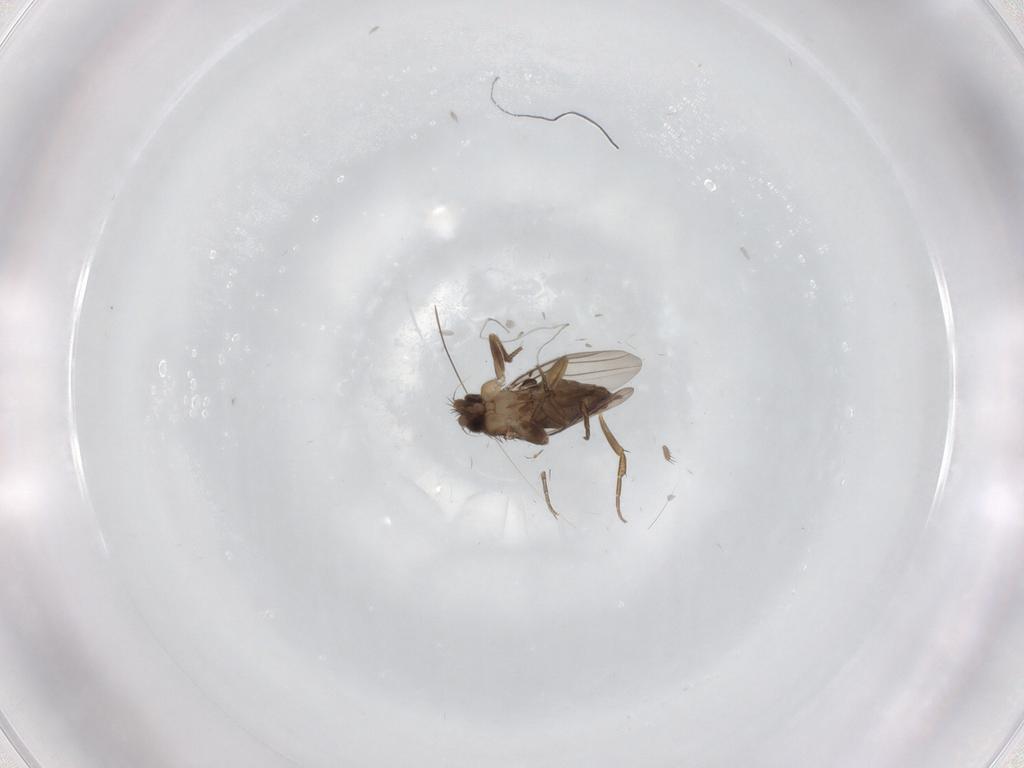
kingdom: Animalia
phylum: Arthropoda
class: Insecta
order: Diptera
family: Phoridae
